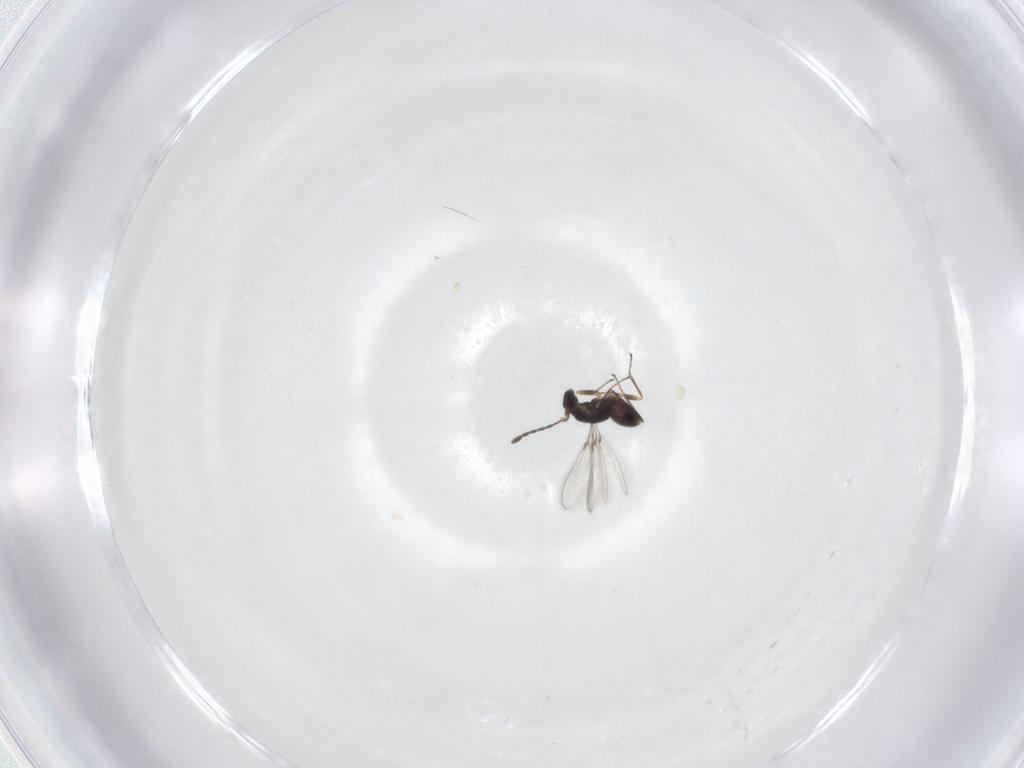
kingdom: Animalia
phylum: Arthropoda
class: Insecta
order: Hymenoptera
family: Mymaridae
